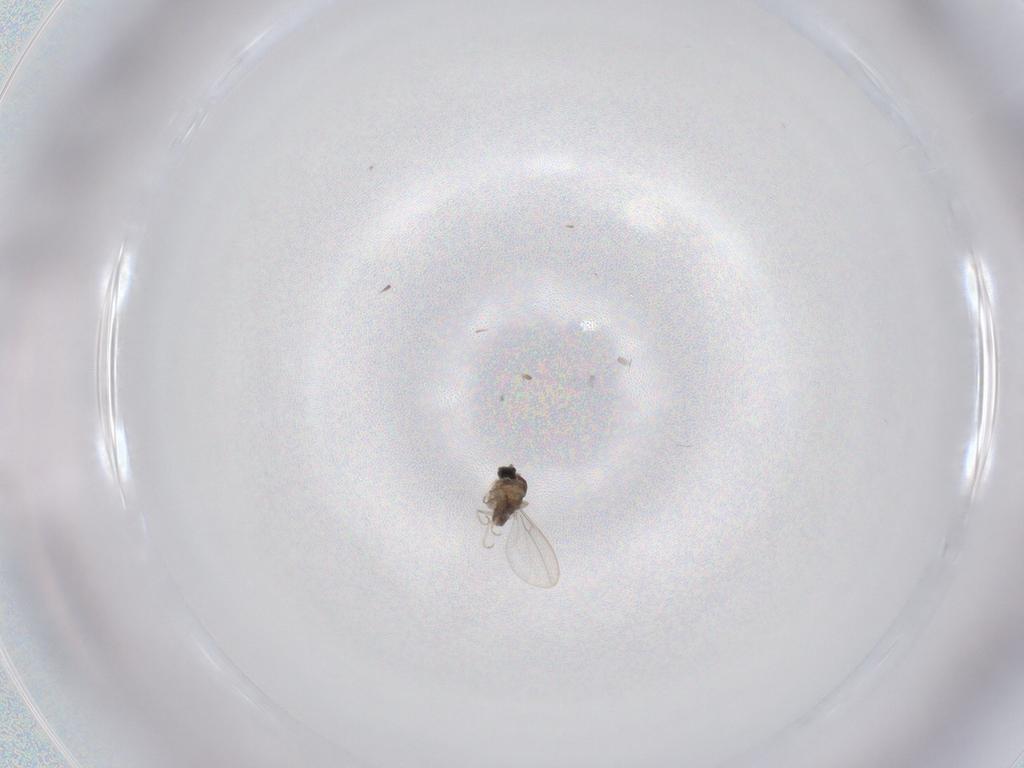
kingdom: Animalia
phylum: Arthropoda
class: Insecta
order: Diptera
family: Cecidomyiidae
